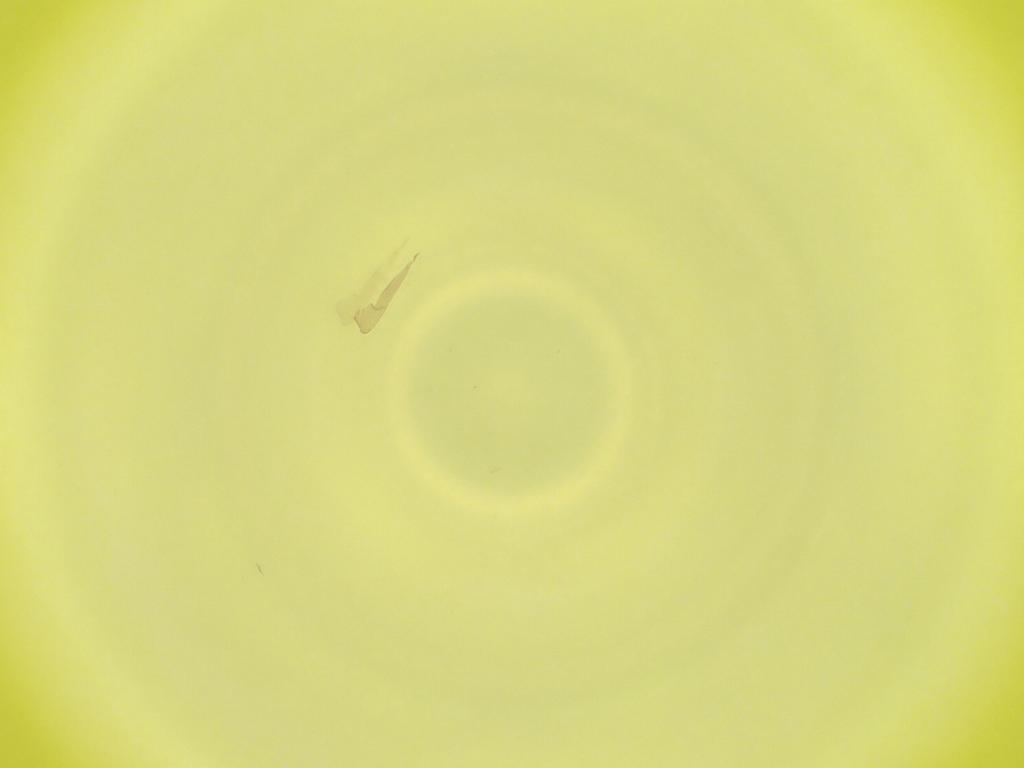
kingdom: Animalia
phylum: Arthropoda
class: Insecta
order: Diptera
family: Cecidomyiidae
